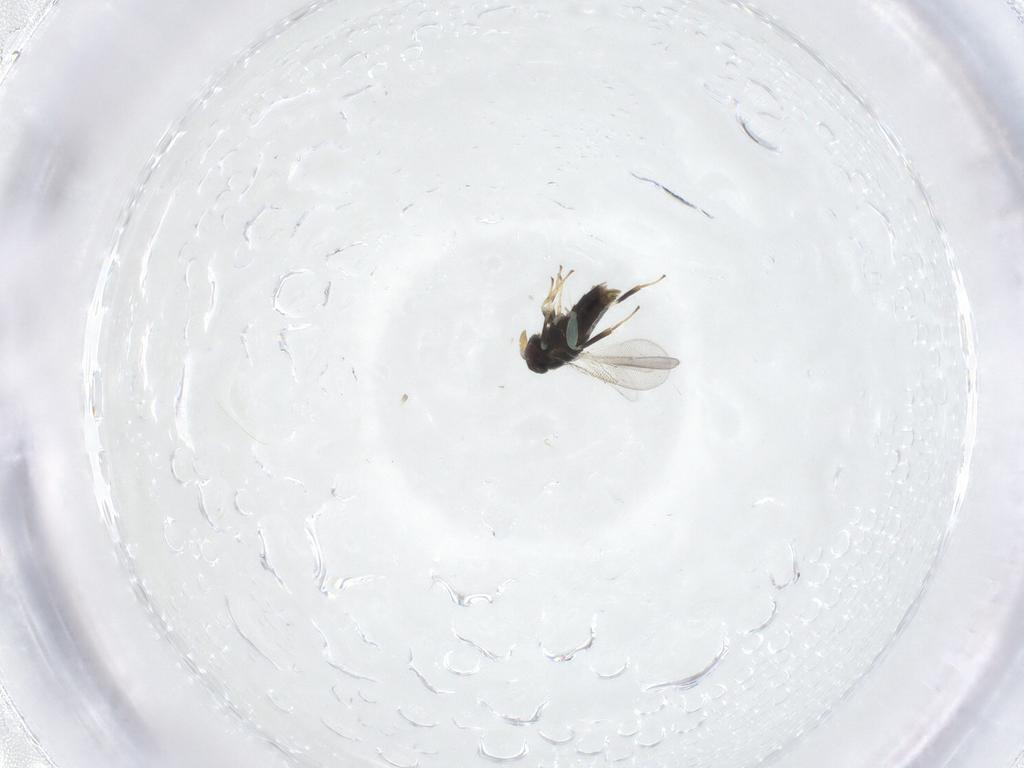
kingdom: Animalia
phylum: Arthropoda
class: Insecta
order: Hymenoptera
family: Aphelinidae
